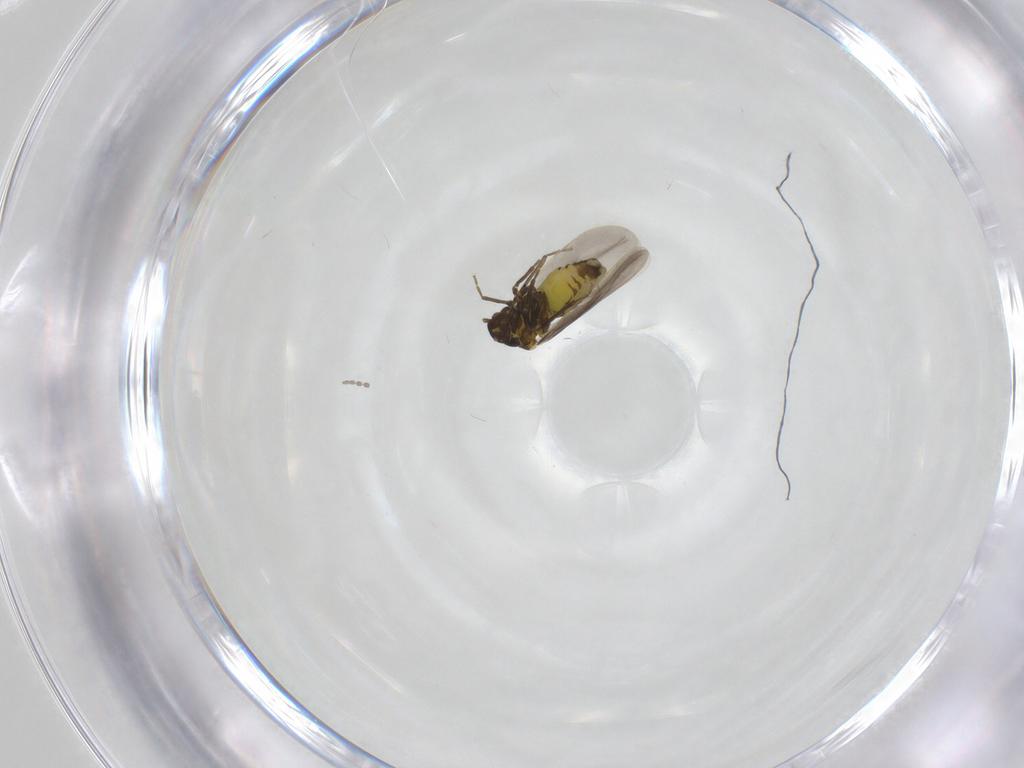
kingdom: Animalia
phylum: Arthropoda
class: Insecta
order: Hemiptera
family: Aleyrodidae
